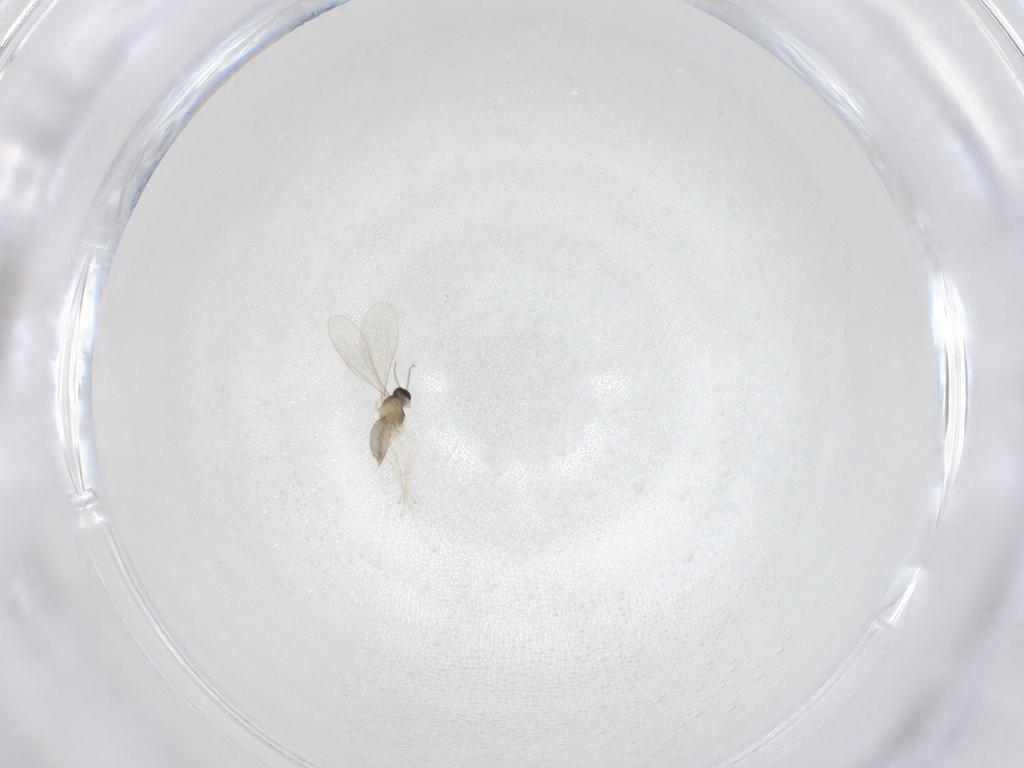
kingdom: Animalia
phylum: Arthropoda
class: Insecta
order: Diptera
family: Cecidomyiidae
